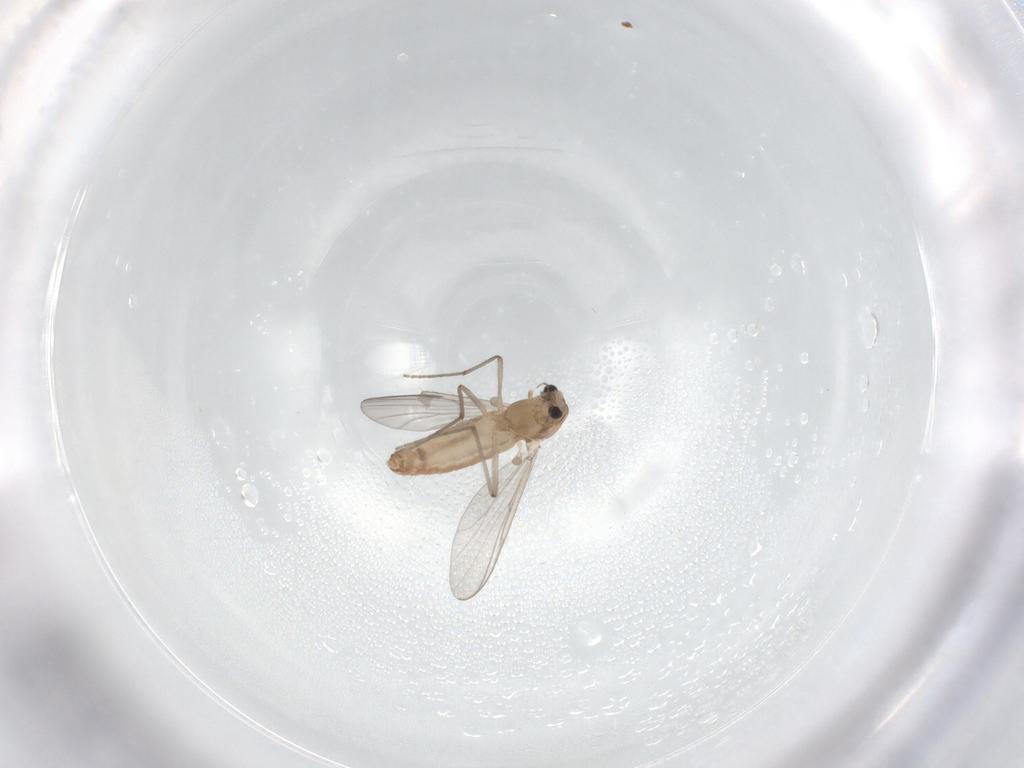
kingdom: Animalia
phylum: Arthropoda
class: Insecta
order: Diptera
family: Chironomidae
